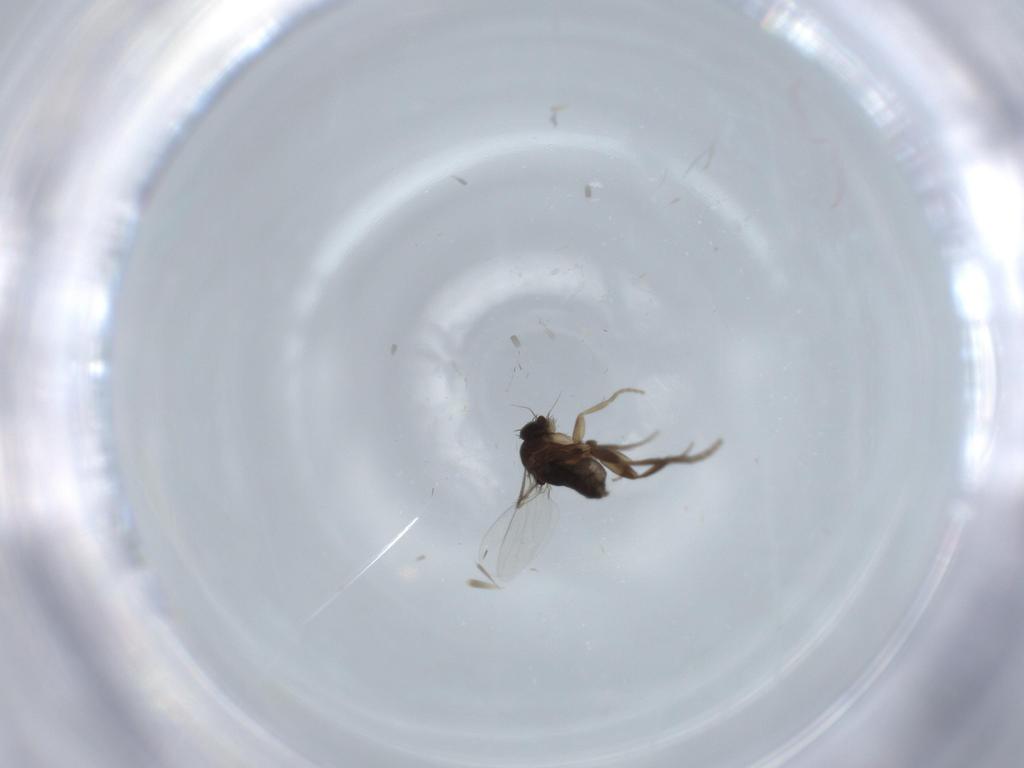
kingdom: Animalia
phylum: Arthropoda
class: Insecta
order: Diptera
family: Phoridae
